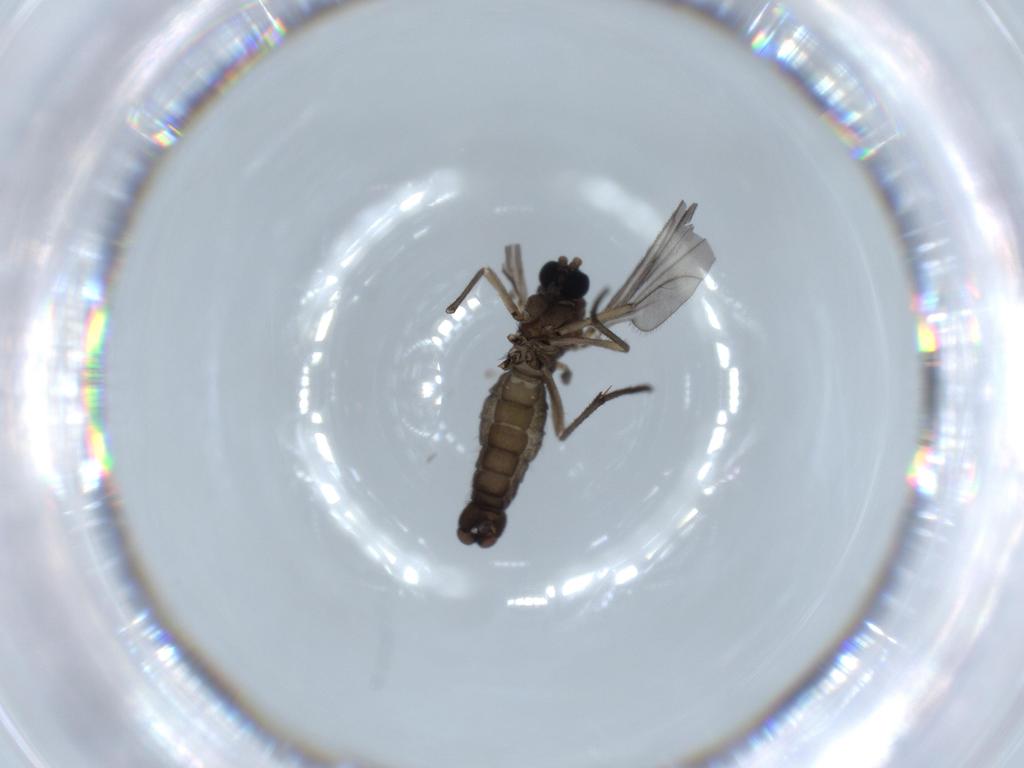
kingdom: Animalia
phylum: Arthropoda
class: Insecta
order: Diptera
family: Sciaridae
